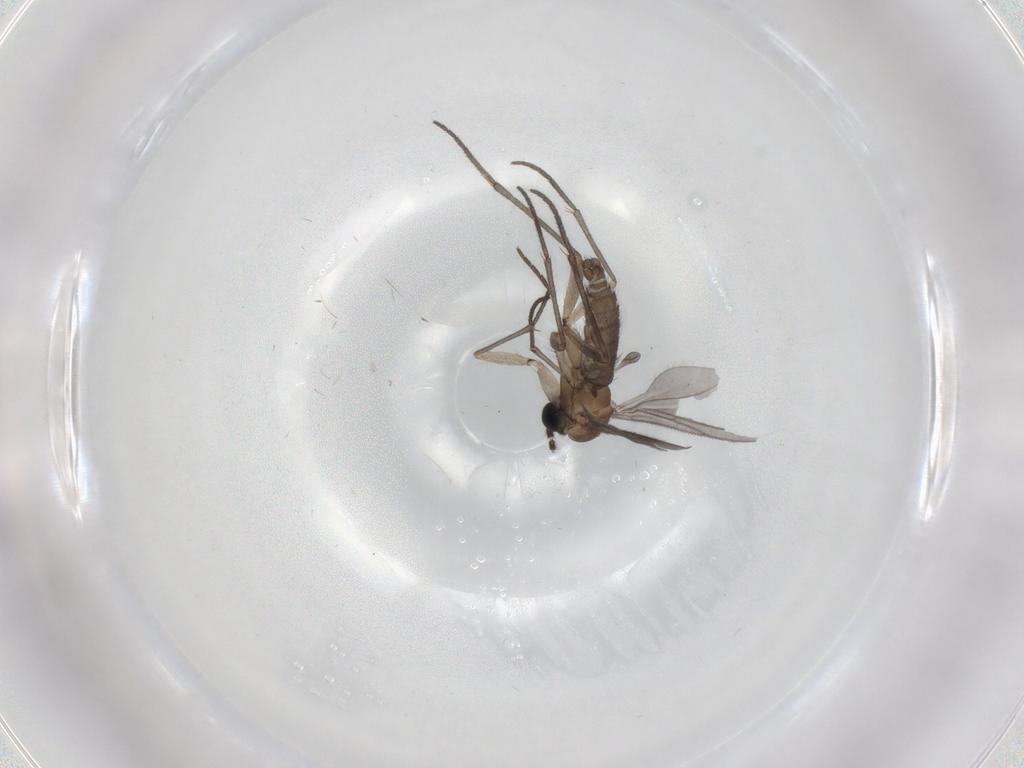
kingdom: Animalia
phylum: Arthropoda
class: Insecta
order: Diptera
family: Sciaridae
